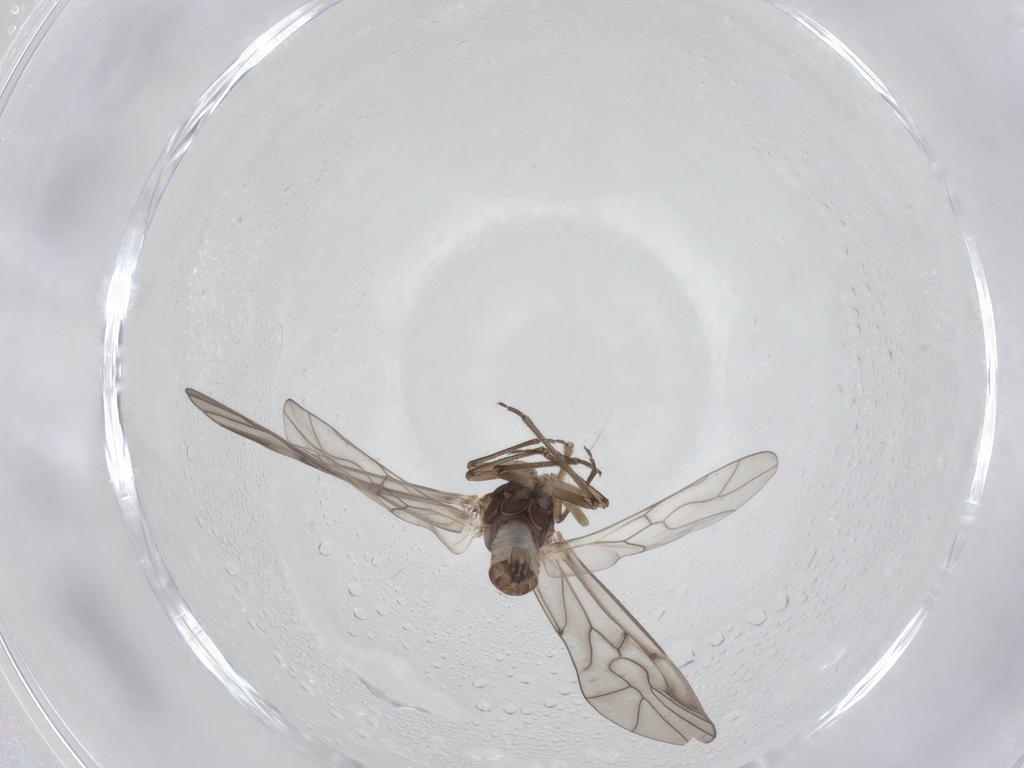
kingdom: Animalia
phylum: Arthropoda
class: Insecta
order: Psocodea
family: Peripsocidae
